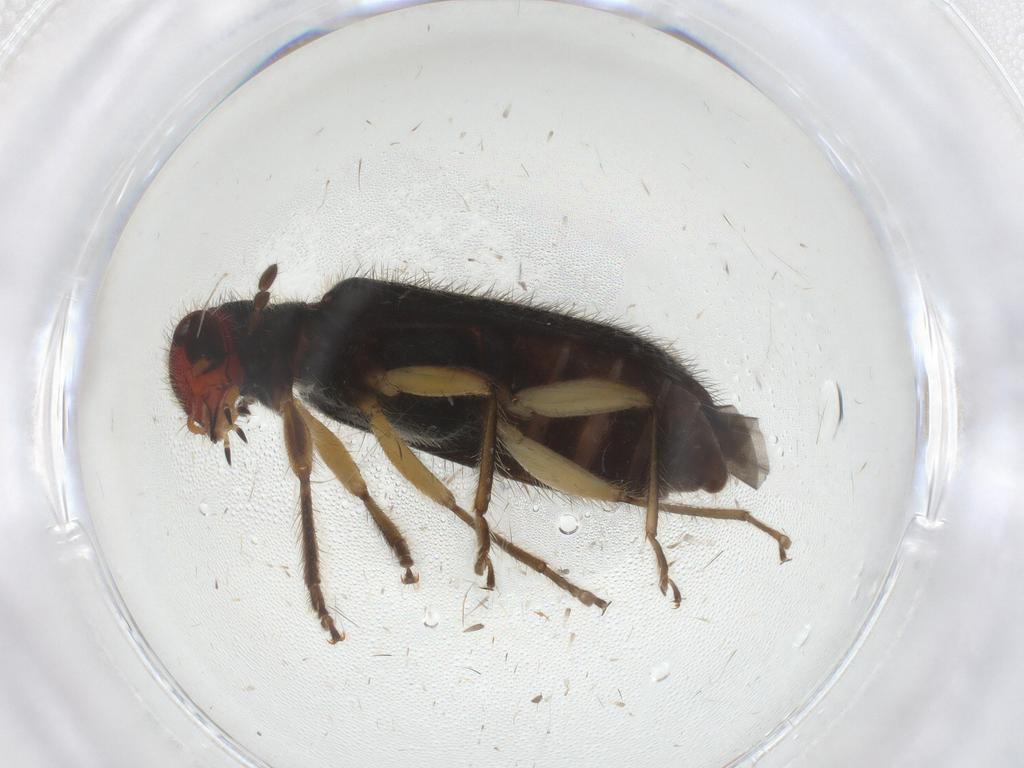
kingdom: Animalia
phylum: Arthropoda
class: Insecta
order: Coleoptera
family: Cleridae
